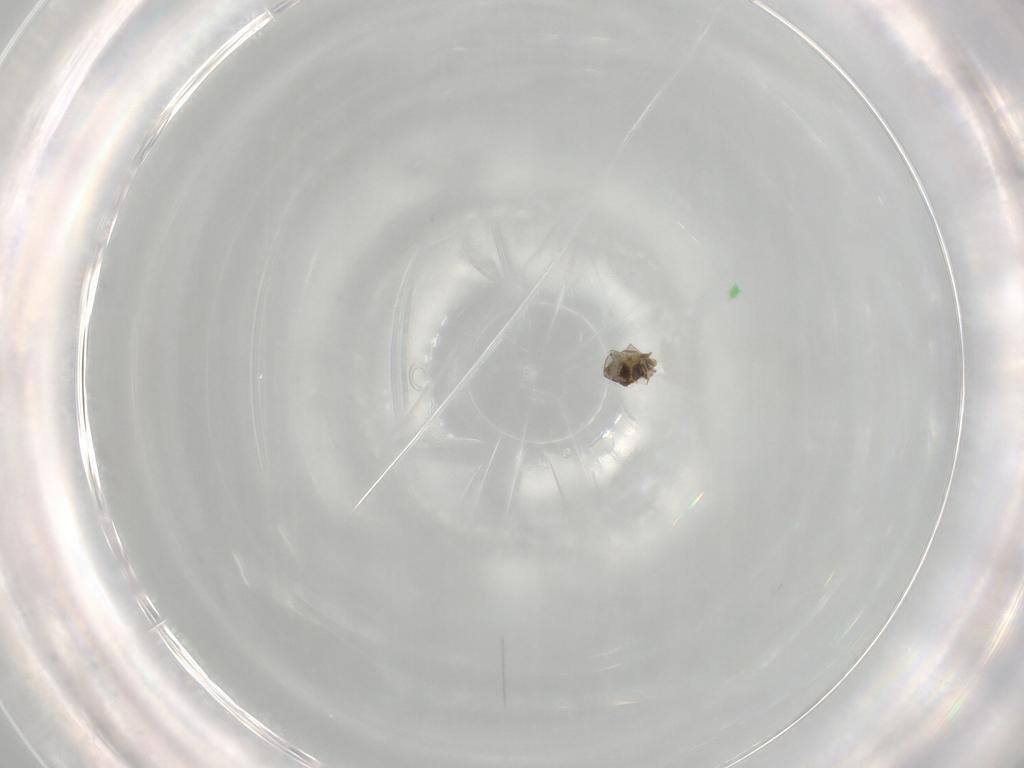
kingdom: Animalia
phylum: Arthropoda
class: Insecta
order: Hymenoptera
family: Aphelinidae
